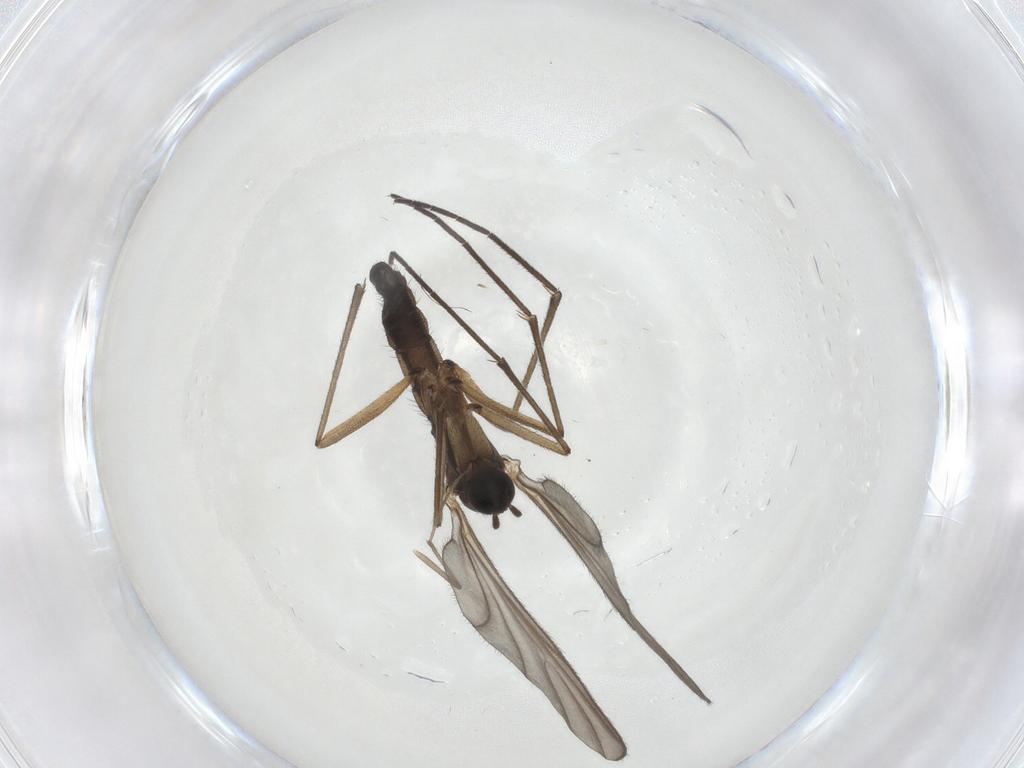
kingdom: Animalia
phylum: Arthropoda
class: Insecta
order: Diptera
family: Sciaridae
